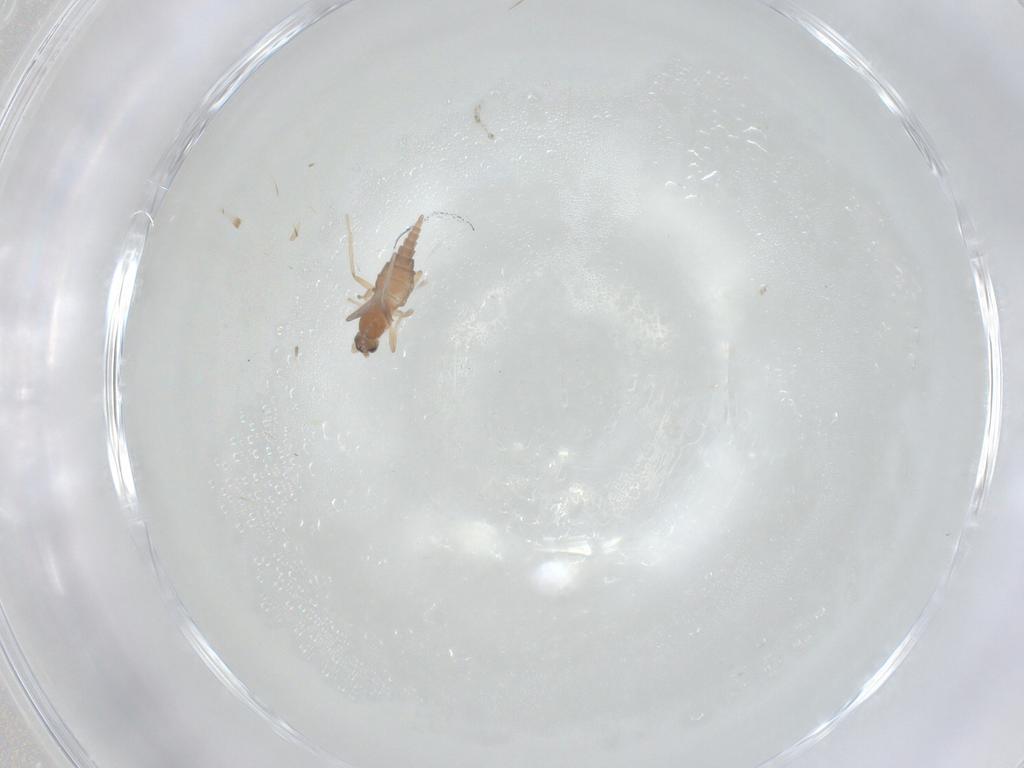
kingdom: Animalia
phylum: Arthropoda
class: Insecta
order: Diptera
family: Cecidomyiidae
